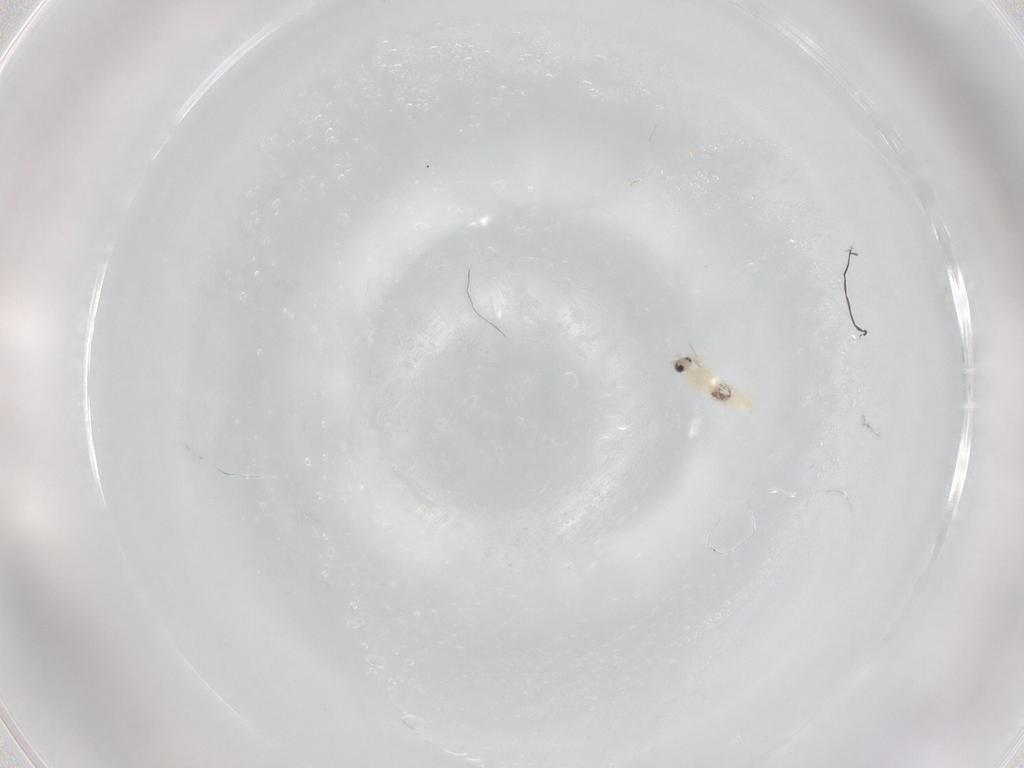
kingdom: Animalia
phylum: Arthropoda
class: Insecta
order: Diptera
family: Cecidomyiidae
